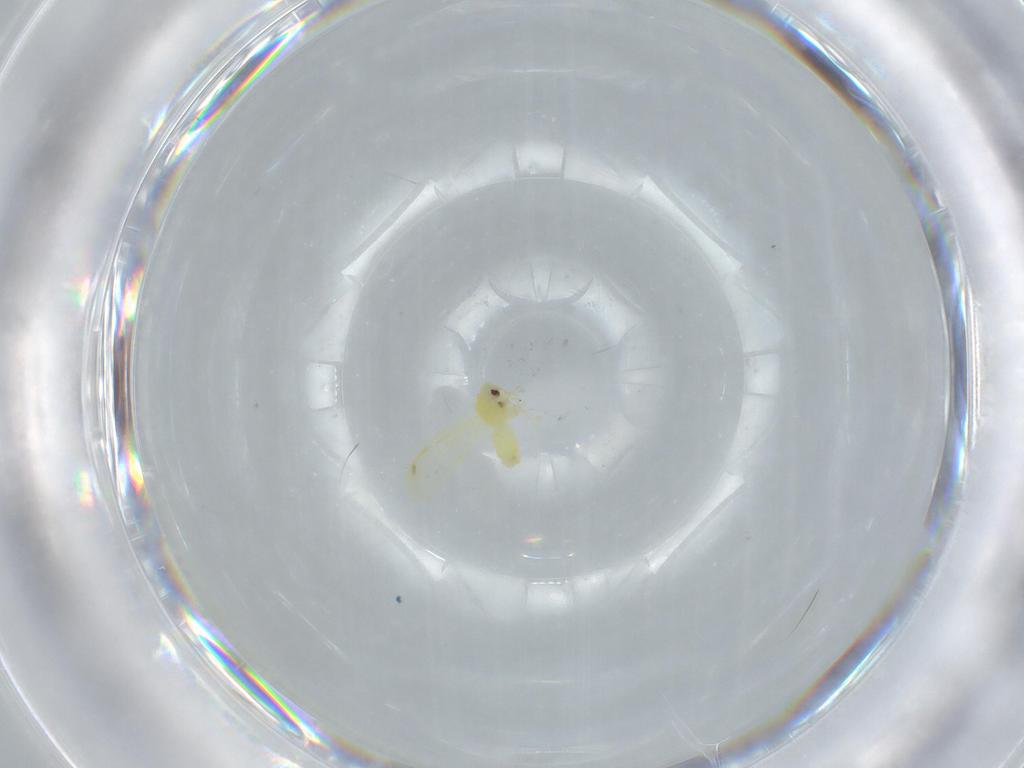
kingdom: Animalia
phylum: Arthropoda
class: Insecta
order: Hemiptera
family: Aleyrodidae
